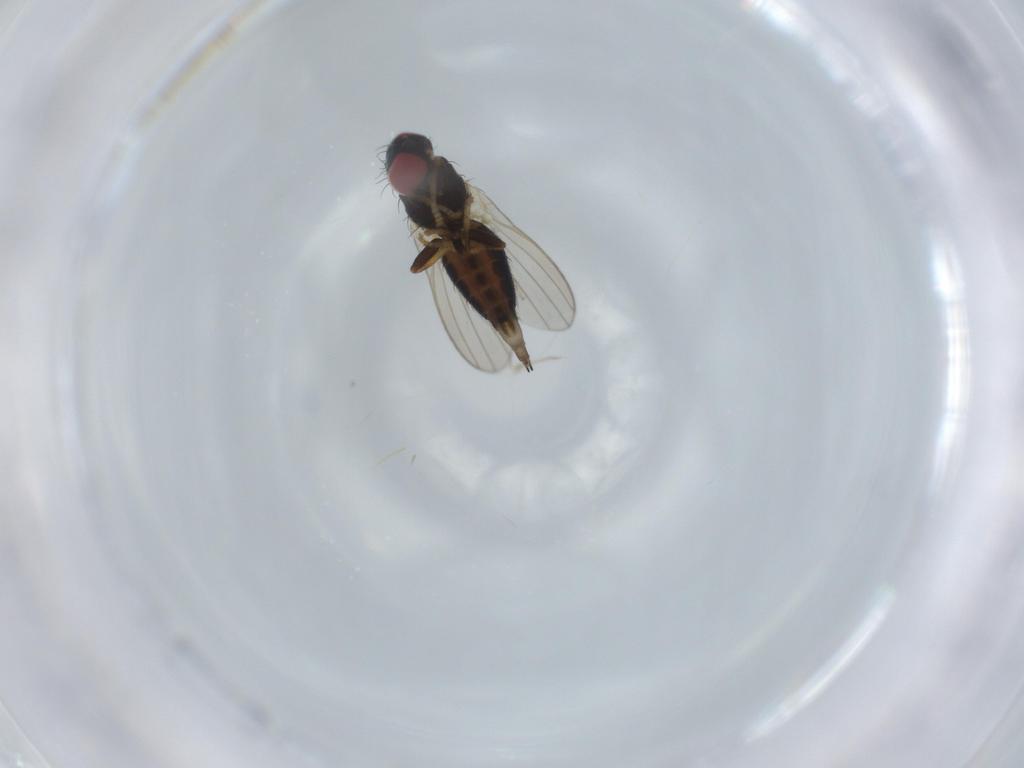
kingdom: Animalia
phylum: Arthropoda
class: Insecta
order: Diptera
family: Chamaemyiidae
